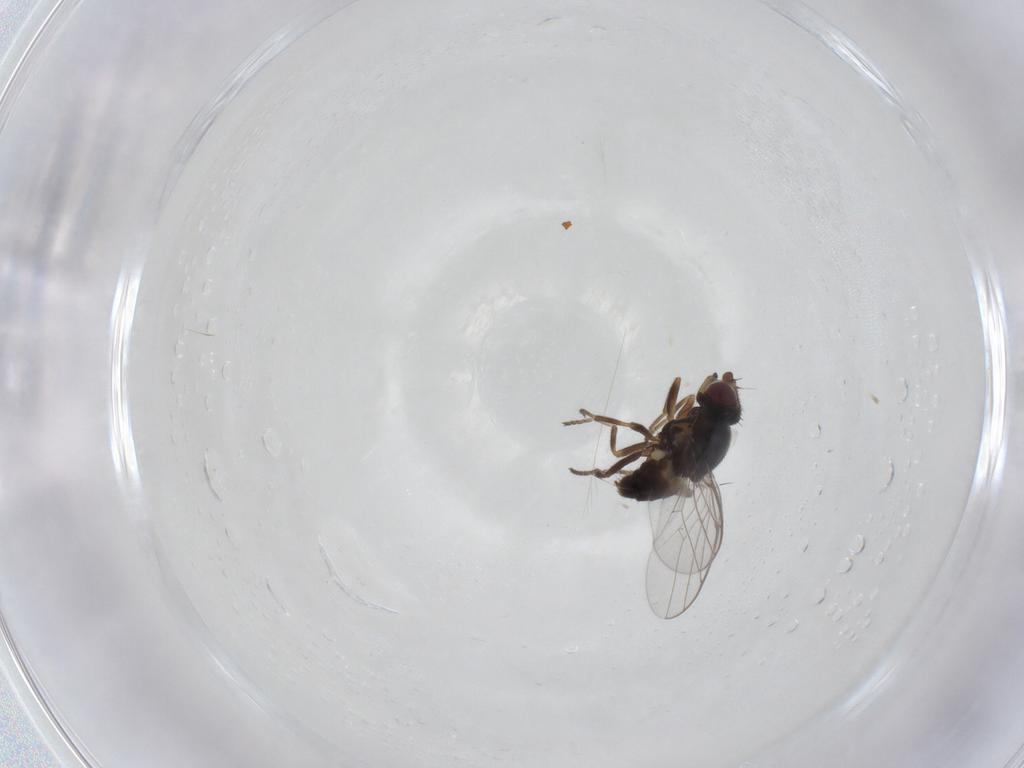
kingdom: Animalia
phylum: Arthropoda
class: Insecta
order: Diptera
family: Chloropidae
